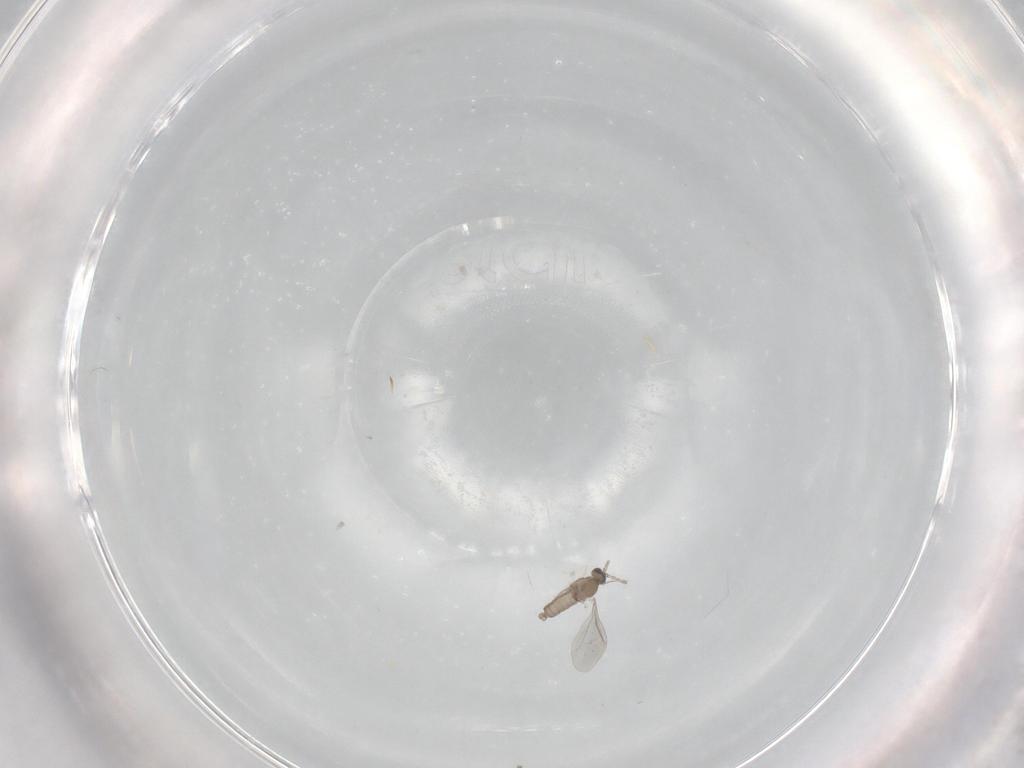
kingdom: Animalia
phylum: Arthropoda
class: Insecta
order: Diptera
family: Cecidomyiidae
